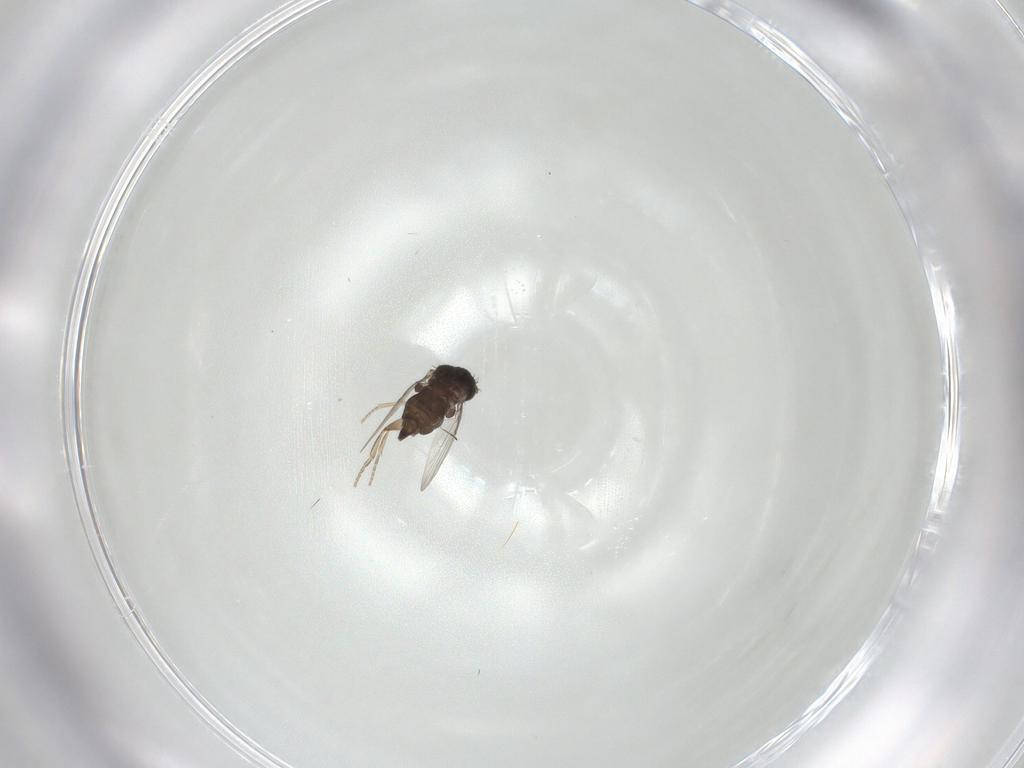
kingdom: Animalia
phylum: Arthropoda
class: Insecta
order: Diptera
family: Phoridae
